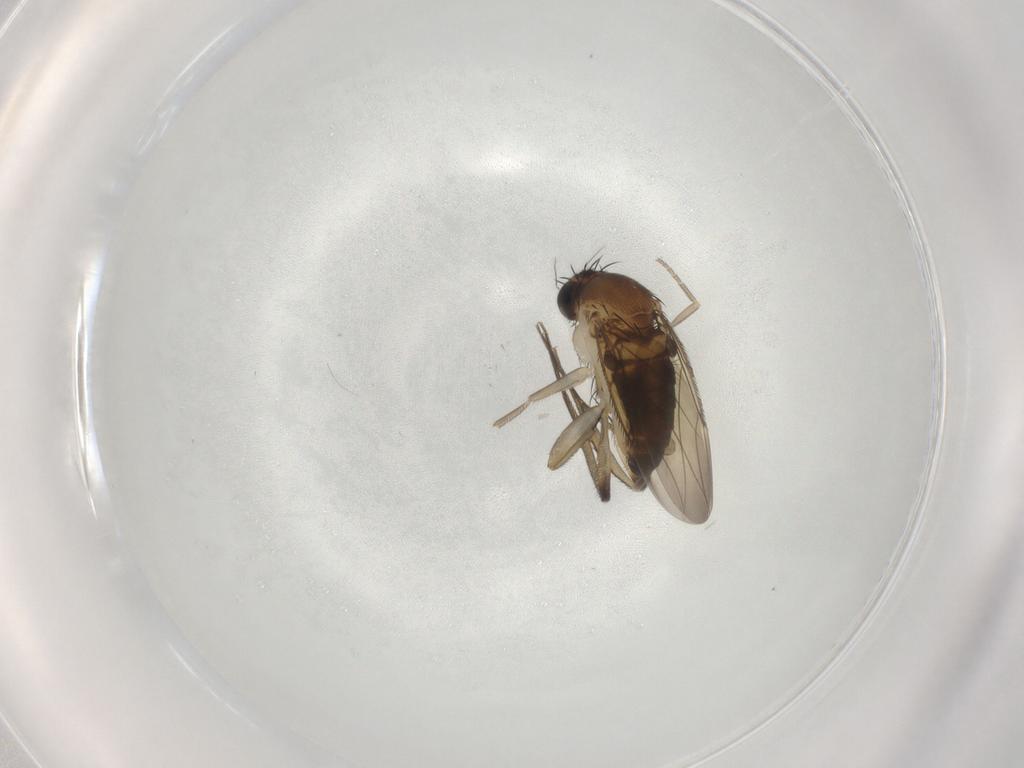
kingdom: Animalia
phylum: Arthropoda
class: Insecta
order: Diptera
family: Phoridae
